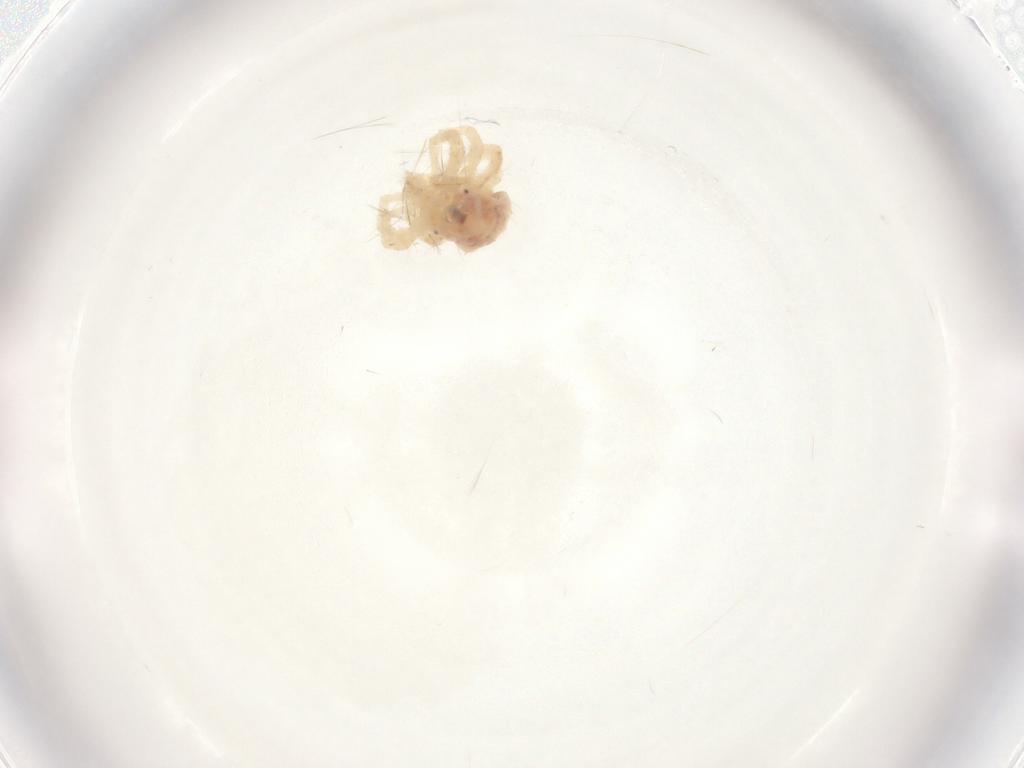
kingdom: Animalia
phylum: Arthropoda
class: Arachnida
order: Trombidiformes
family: Anystidae
